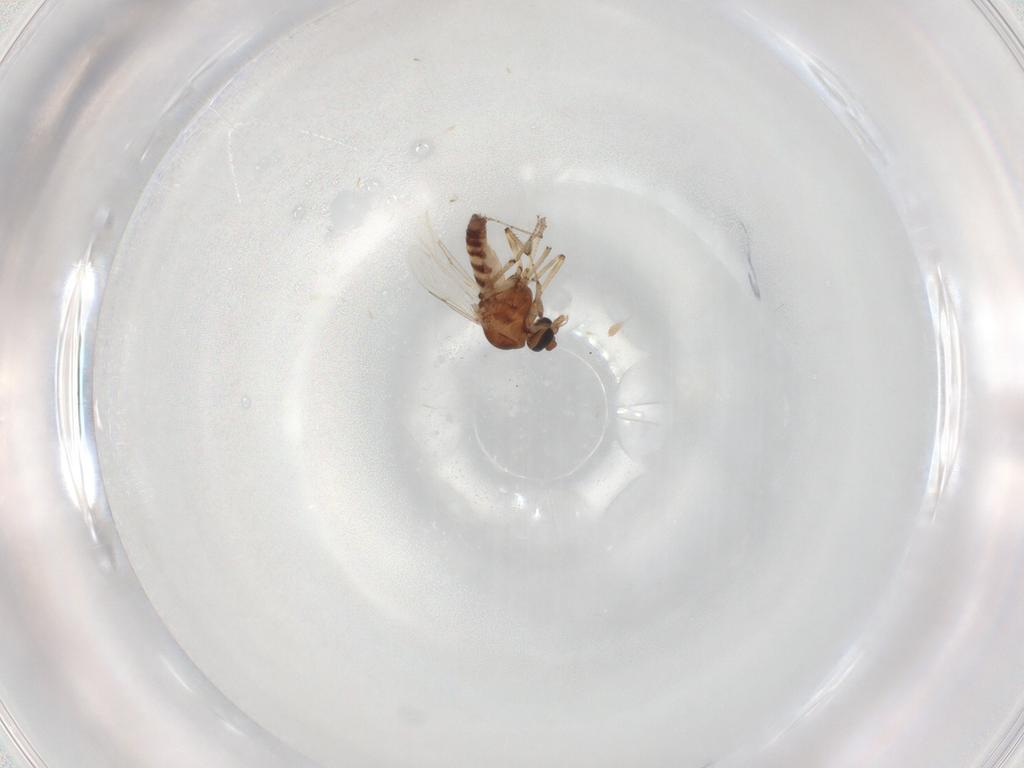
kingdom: Animalia
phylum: Arthropoda
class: Insecta
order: Diptera
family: Ceratopogonidae
